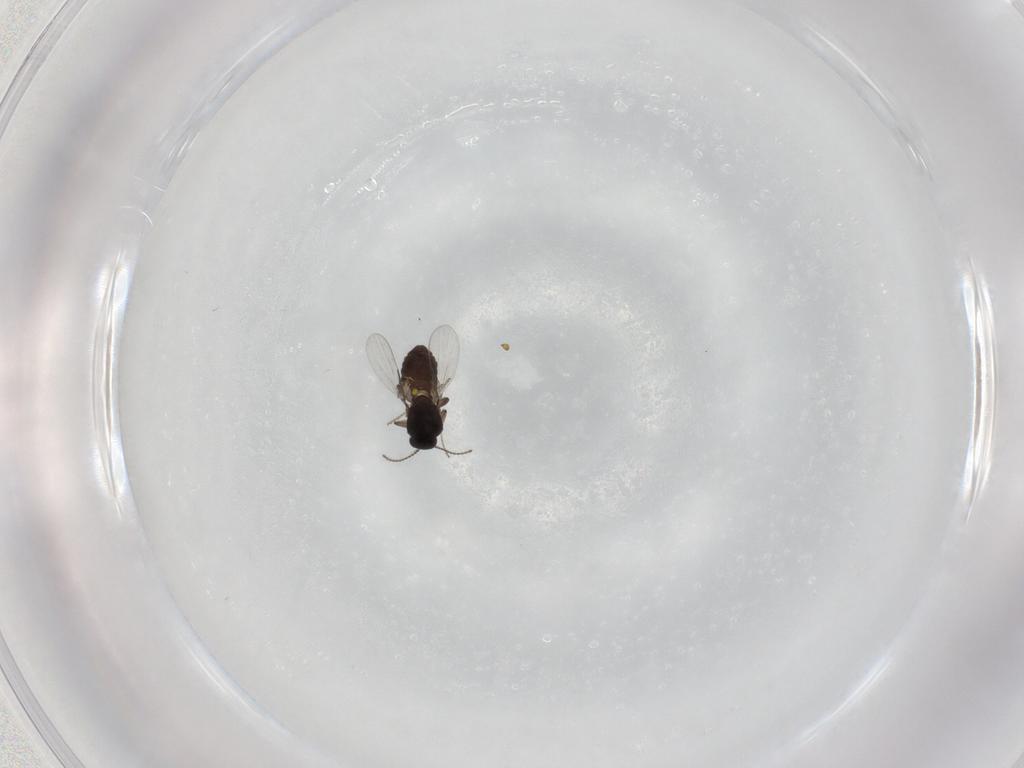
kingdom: Animalia
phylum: Arthropoda
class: Insecta
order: Diptera
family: Ceratopogonidae
